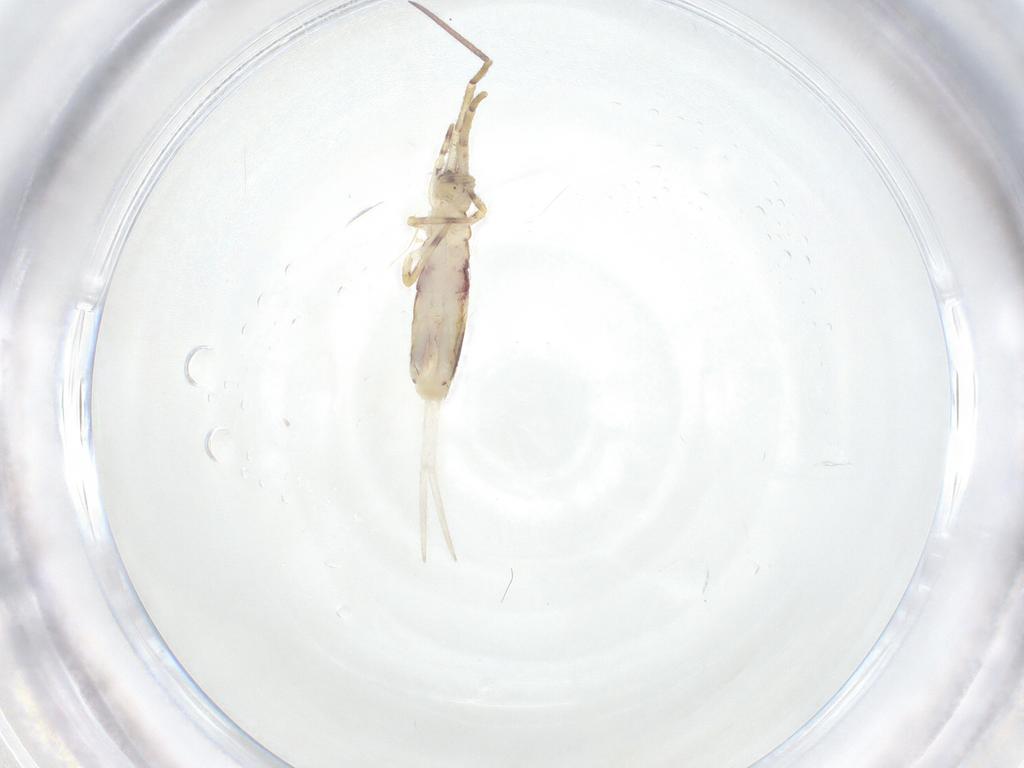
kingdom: Animalia
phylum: Arthropoda
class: Collembola
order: Entomobryomorpha
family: Entomobryidae
